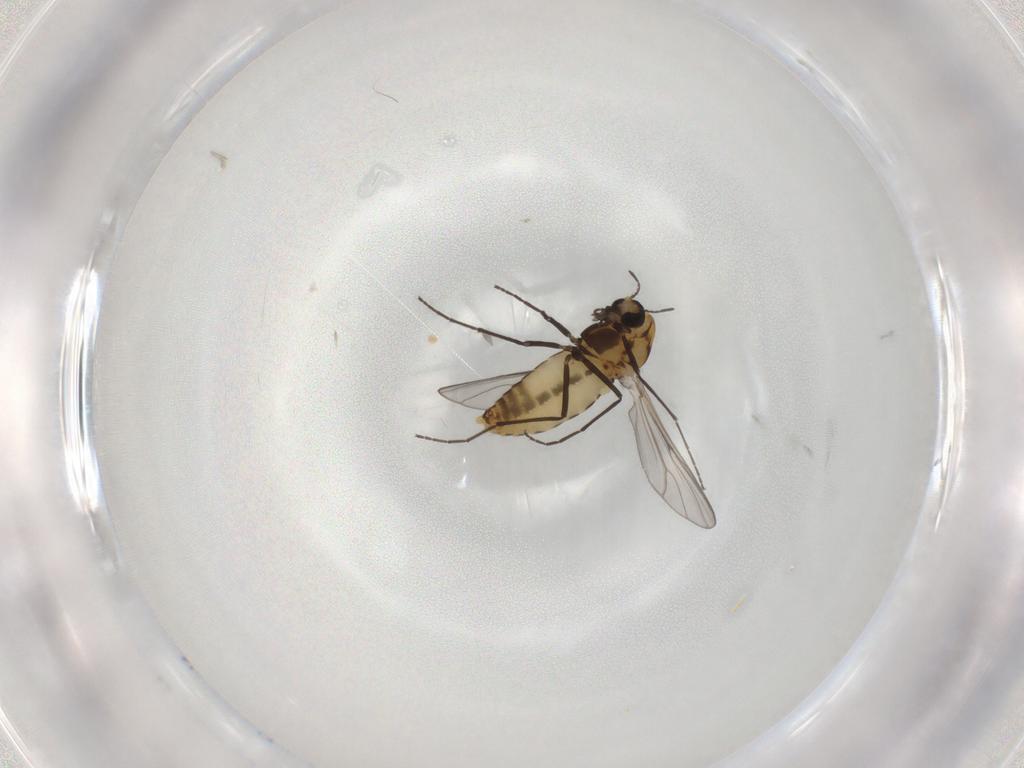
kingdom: Animalia
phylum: Arthropoda
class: Insecta
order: Diptera
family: Chironomidae
